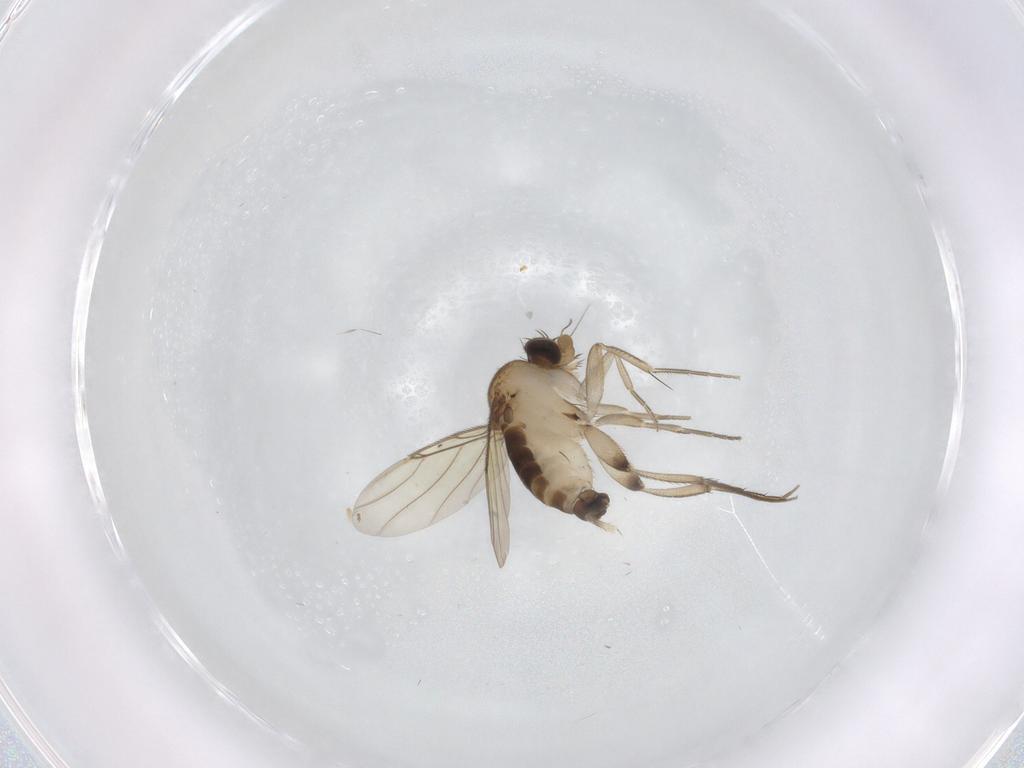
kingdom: Animalia
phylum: Arthropoda
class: Insecta
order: Diptera
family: Phoridae
